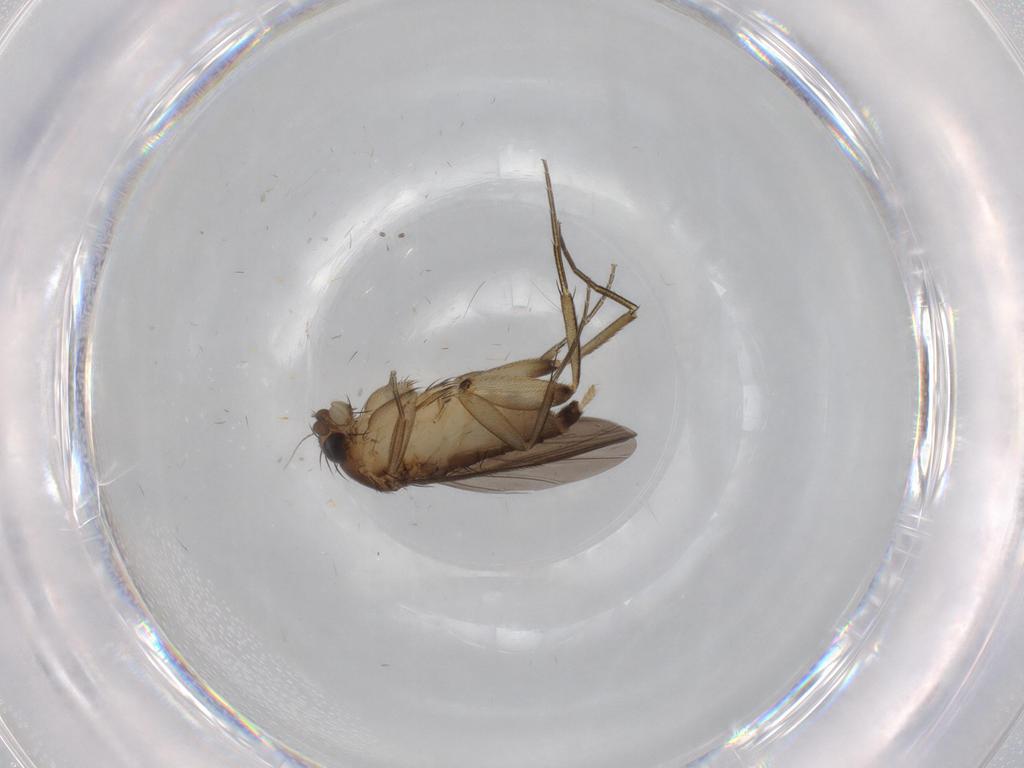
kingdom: Animalia
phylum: Arthropoda
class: Insecta
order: Diptera
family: Phoridae
